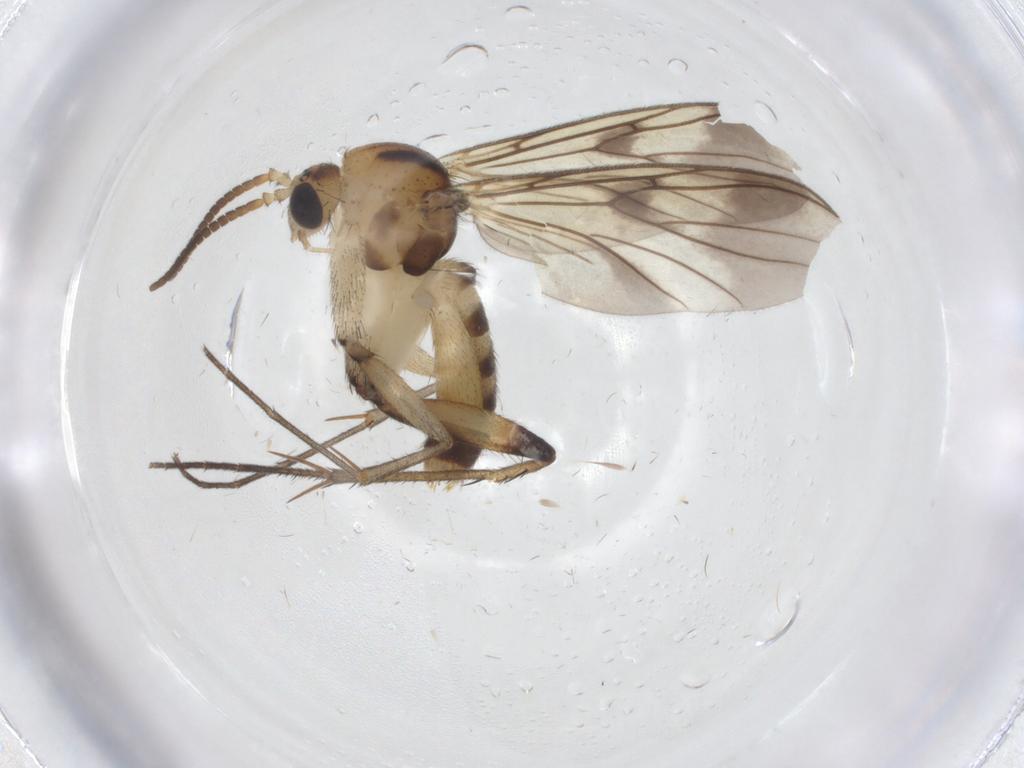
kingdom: Animalia
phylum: Arthropoda
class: Insecta
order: Diptera
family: Mycetophilidae
